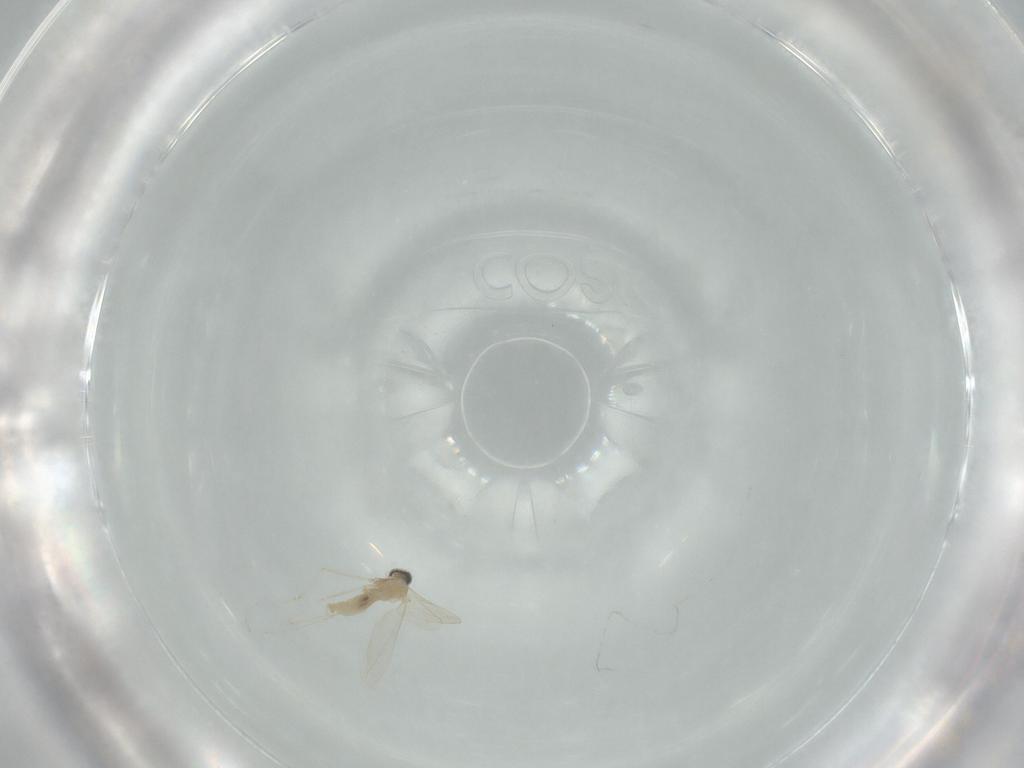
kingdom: Animalia
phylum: Arthropoda
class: Insecta
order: Diptera
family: Cecidomyiidae
